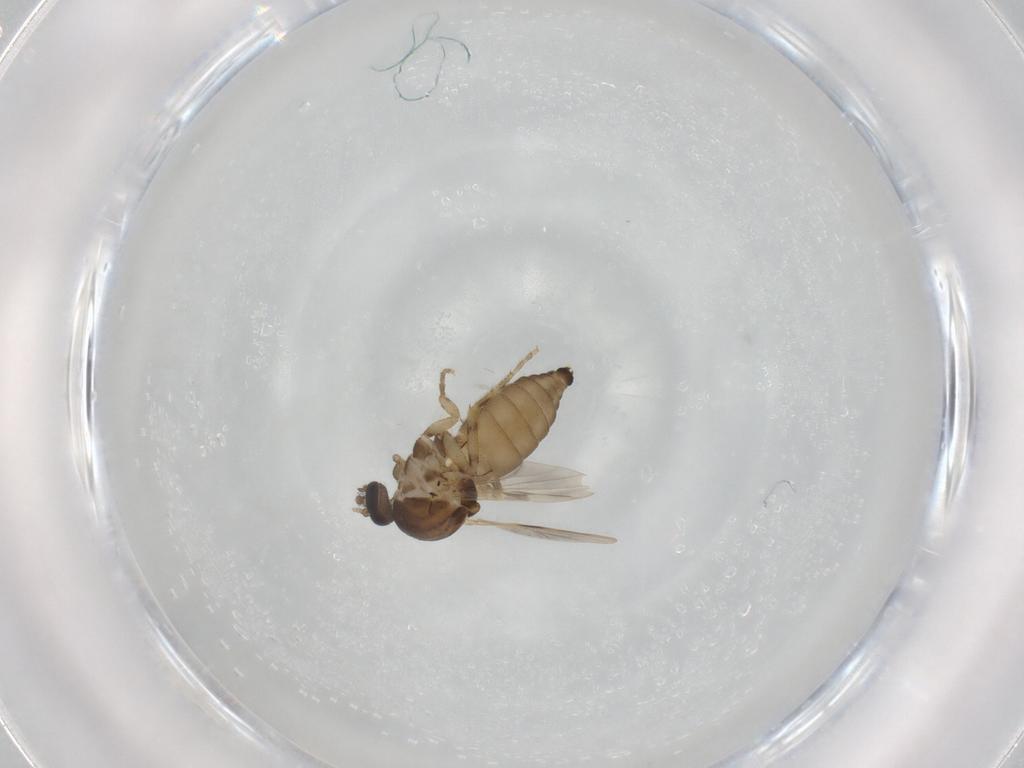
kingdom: Animalia
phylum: Arthropoda
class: Insecta
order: Diptera
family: Ceratopogonidae
